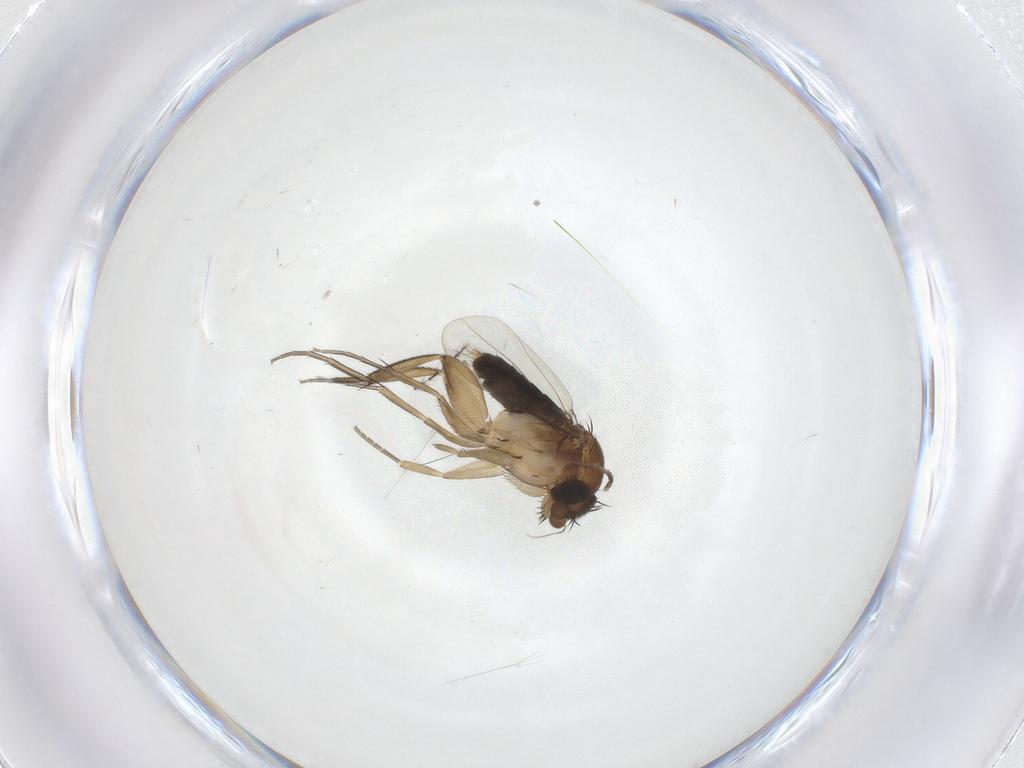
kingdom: Animalia
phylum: Arthropoda
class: Insecta
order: Diptera
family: Phoridae
